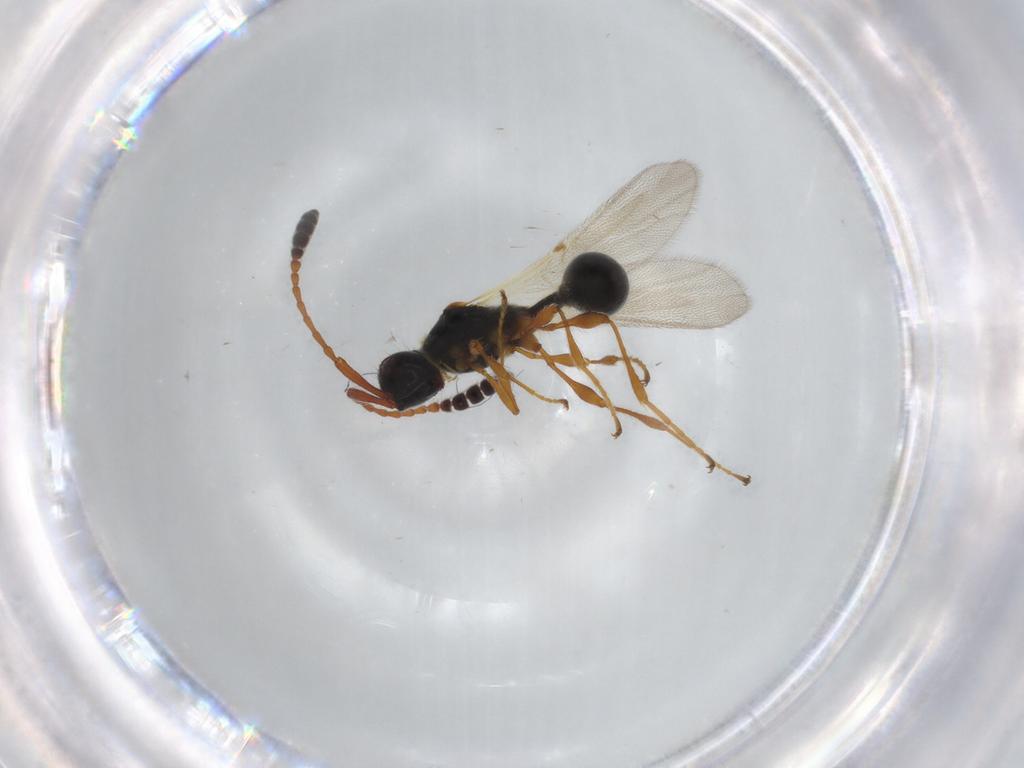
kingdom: Animalia
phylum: Arthropoda
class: Insecta
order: Hymenoptera
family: Diapriidae
